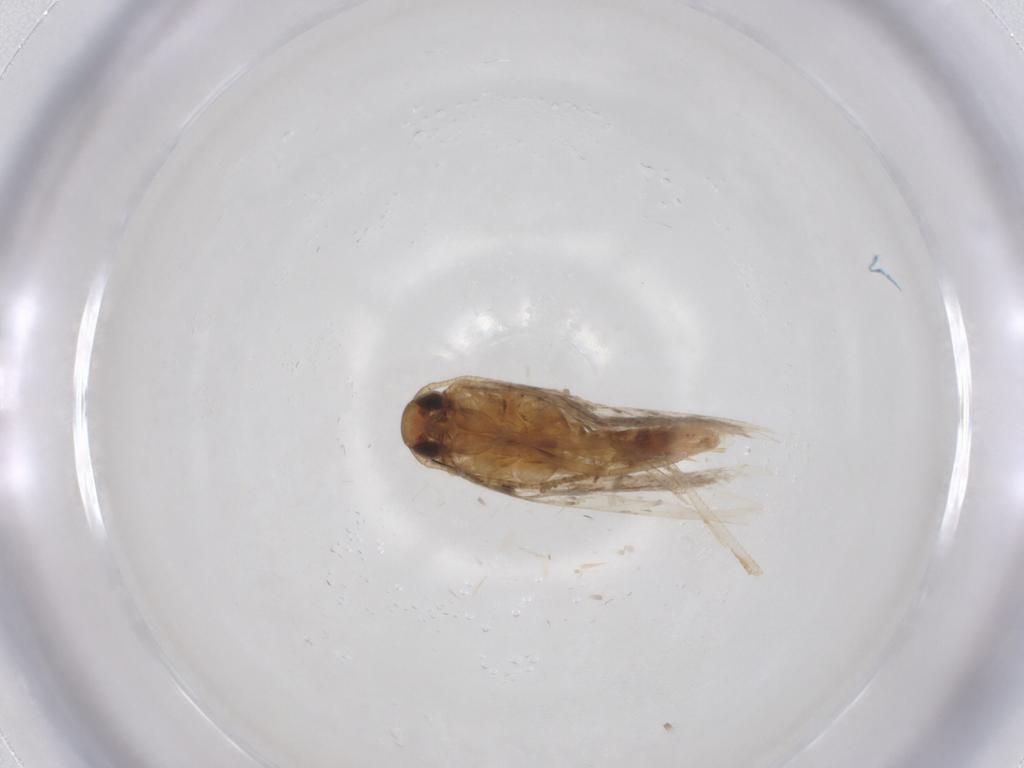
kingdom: Animalia
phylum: Arthropoda
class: Insecta
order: Lepidoptera
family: Gelechiidae
